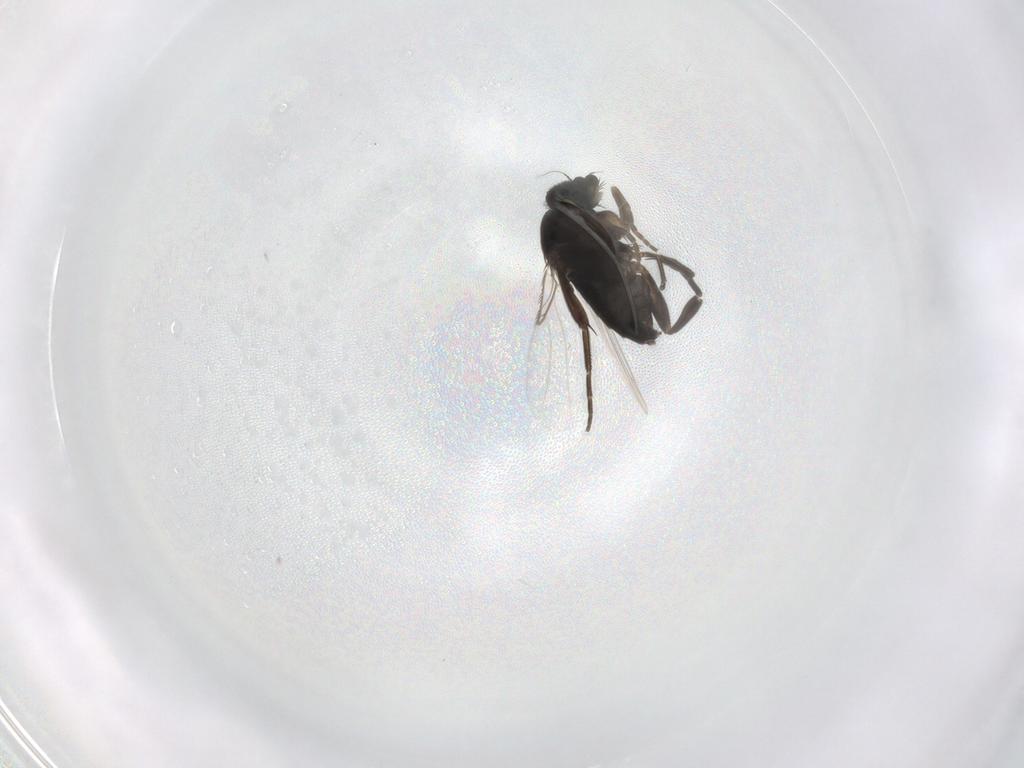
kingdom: Animalia
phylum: Arthropoda
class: Insecta
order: Diptera
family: Phoridae
